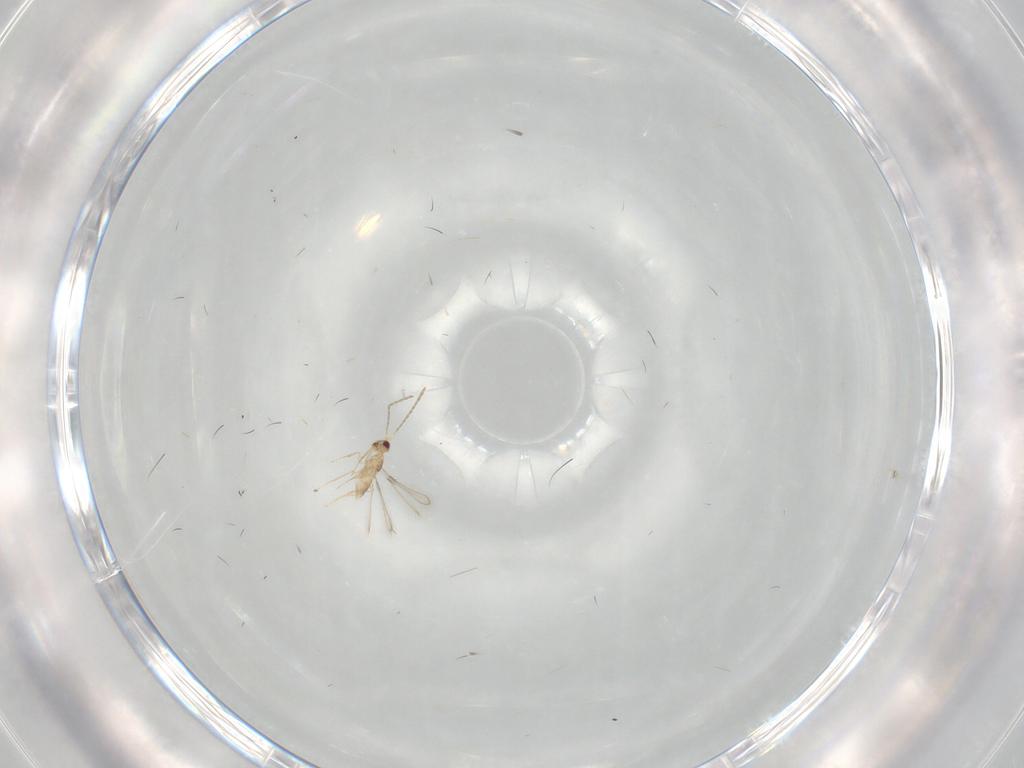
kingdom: Animalia
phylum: Arthropoda
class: Insecta
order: Hymenoptera
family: Mymaridae
